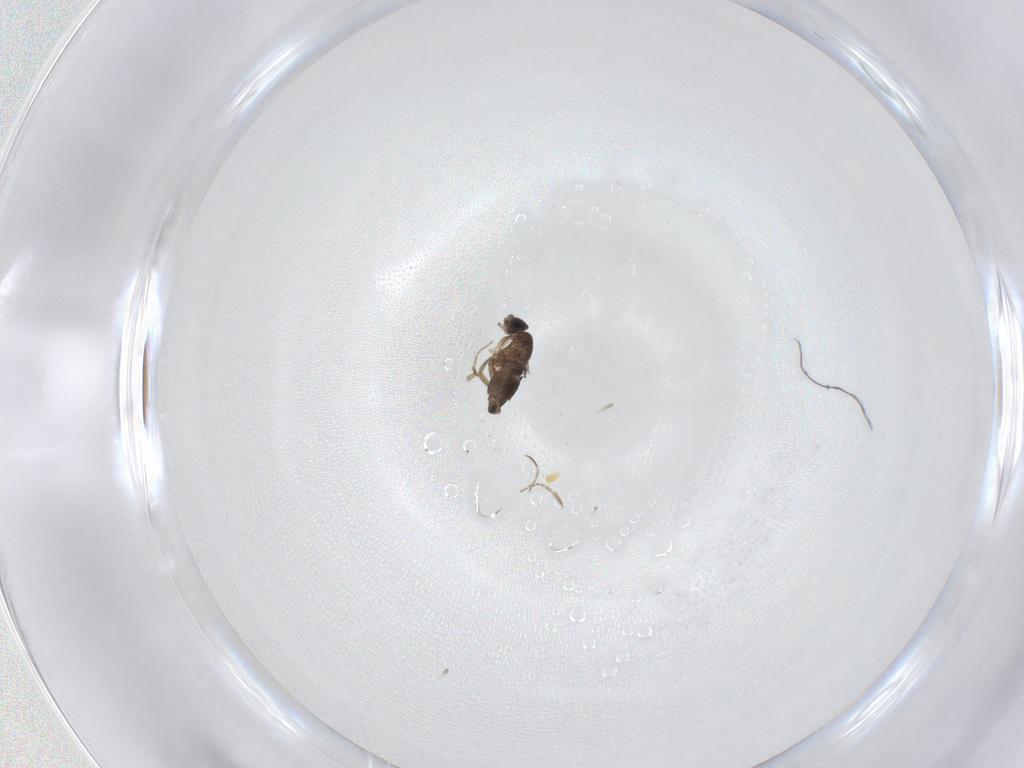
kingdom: Animalia
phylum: Arthropoda
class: Insecta
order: Diptera
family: Phoridae
